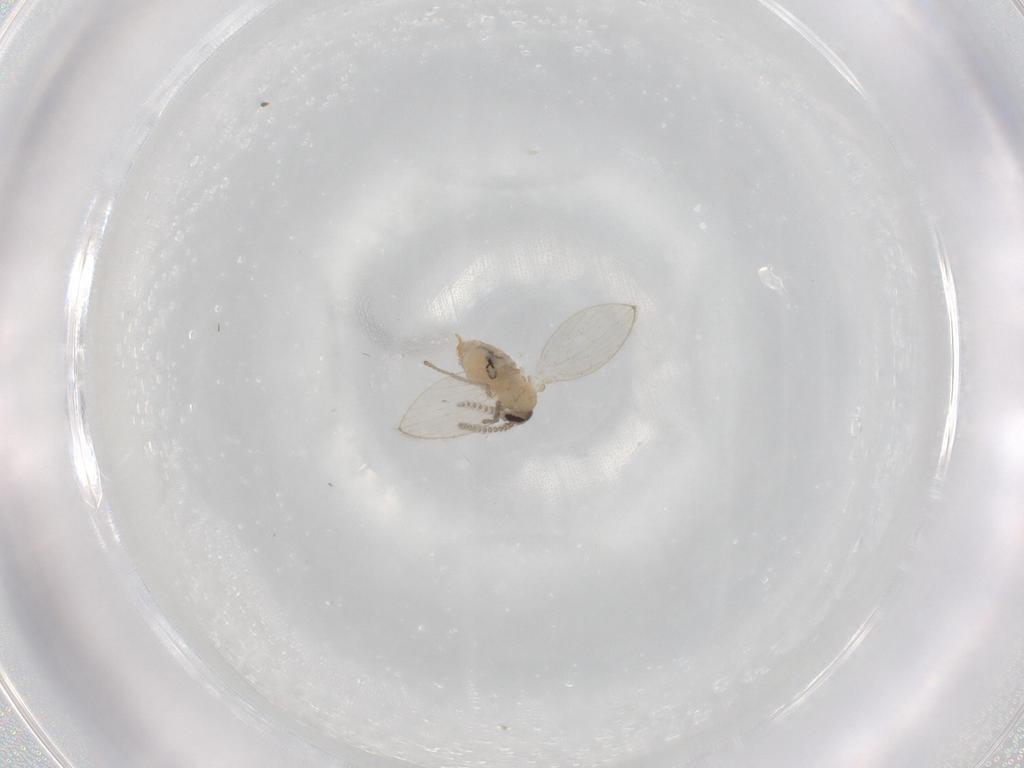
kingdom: Animalia
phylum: Arthropoda
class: Insecta
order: Diptera
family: Psychodidae
